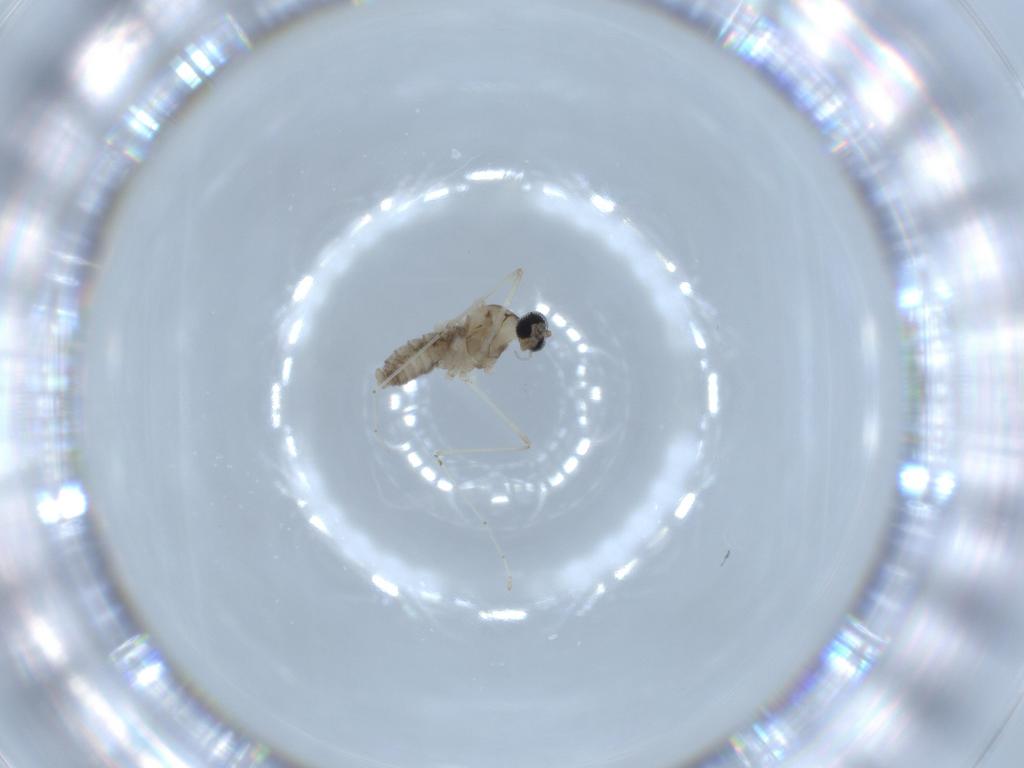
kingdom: Animalia
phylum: Arthropoda
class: Insecta
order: Diptera
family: Cecidomyiidae
